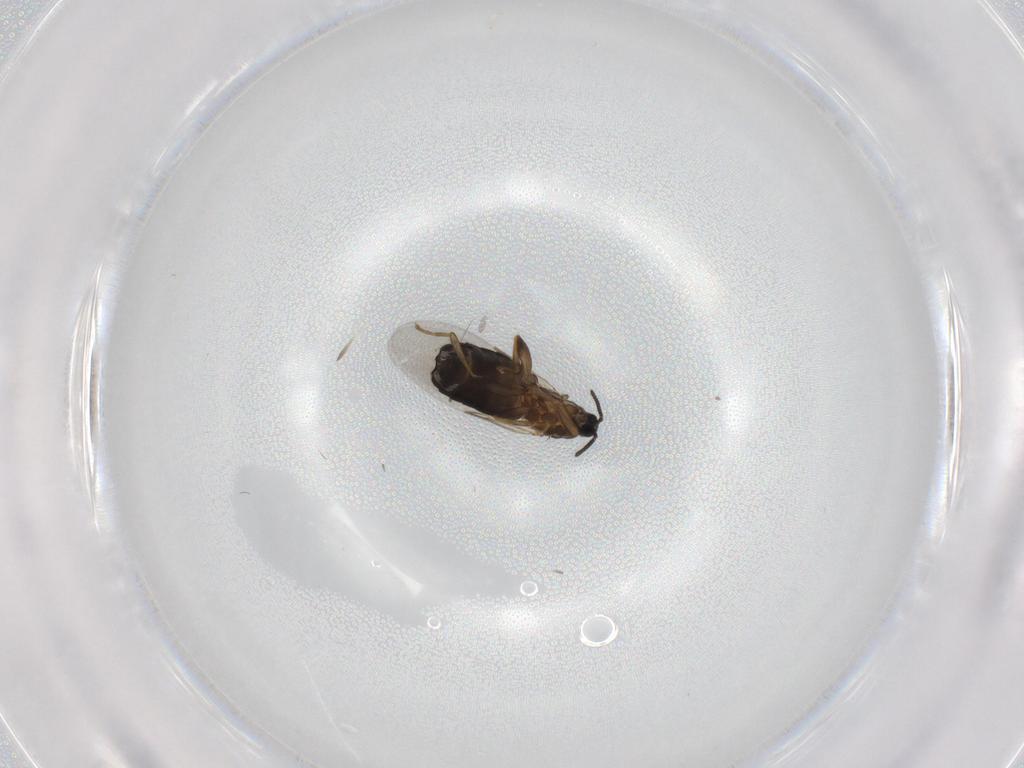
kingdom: Animalia
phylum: Arthropoda
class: Insecta
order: Diptera
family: Scatopsidae
